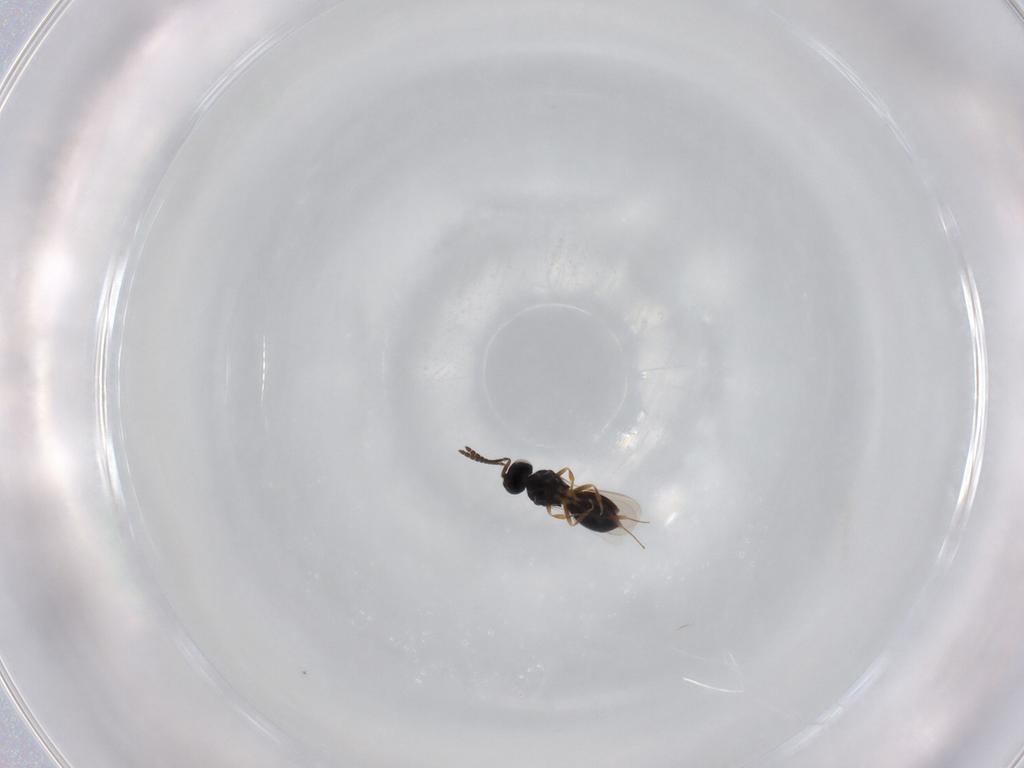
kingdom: Animalia
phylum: Arthropoda
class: Insecta
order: Hymenoptera
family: Scelionidae
